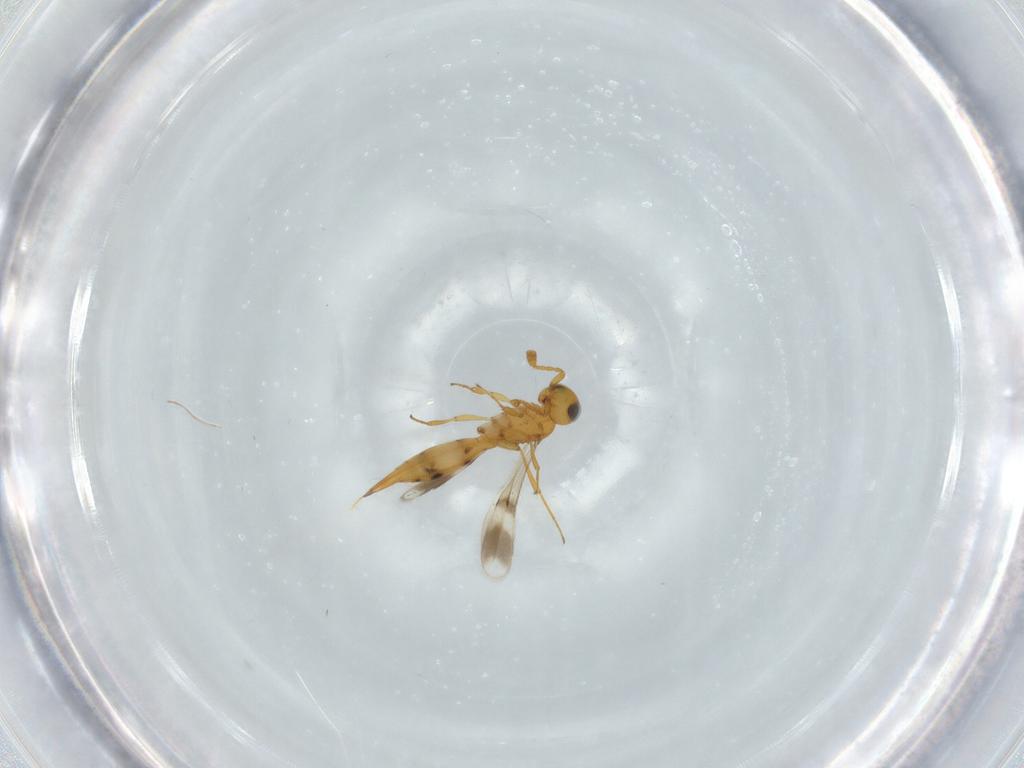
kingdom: Animalia
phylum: Arthropoda
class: Insecta
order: Hymenoptera
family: Scelionidae
